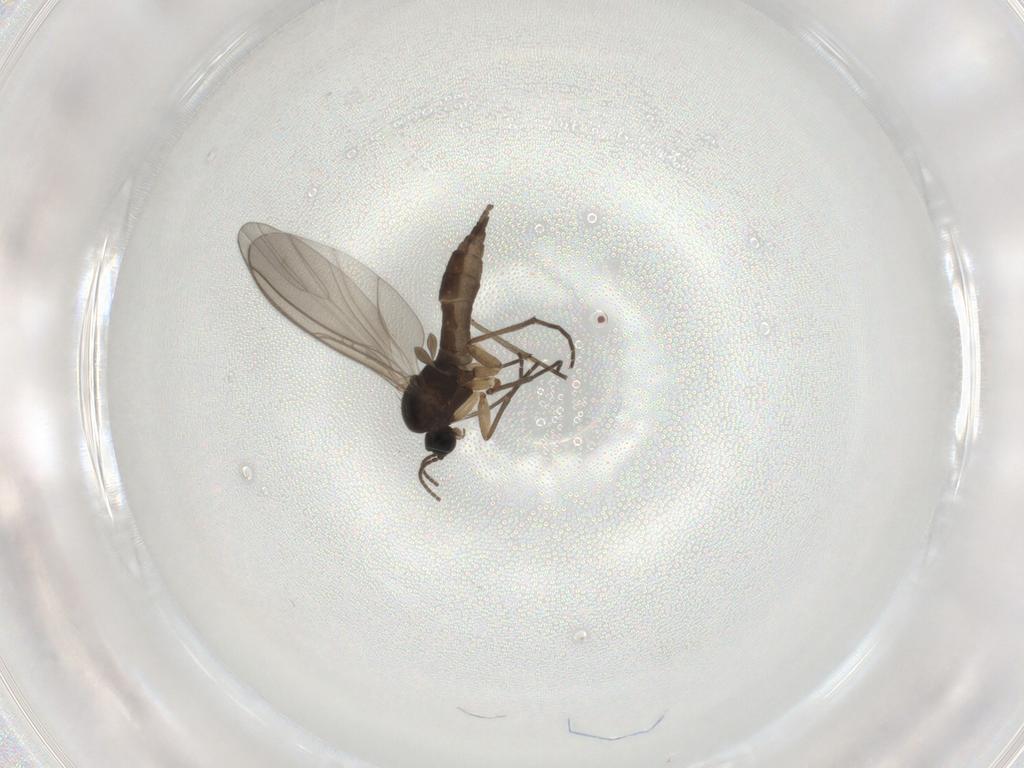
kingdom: Animalia
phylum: Arthropoda
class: Insecta
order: Diptera
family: Sciaridae
